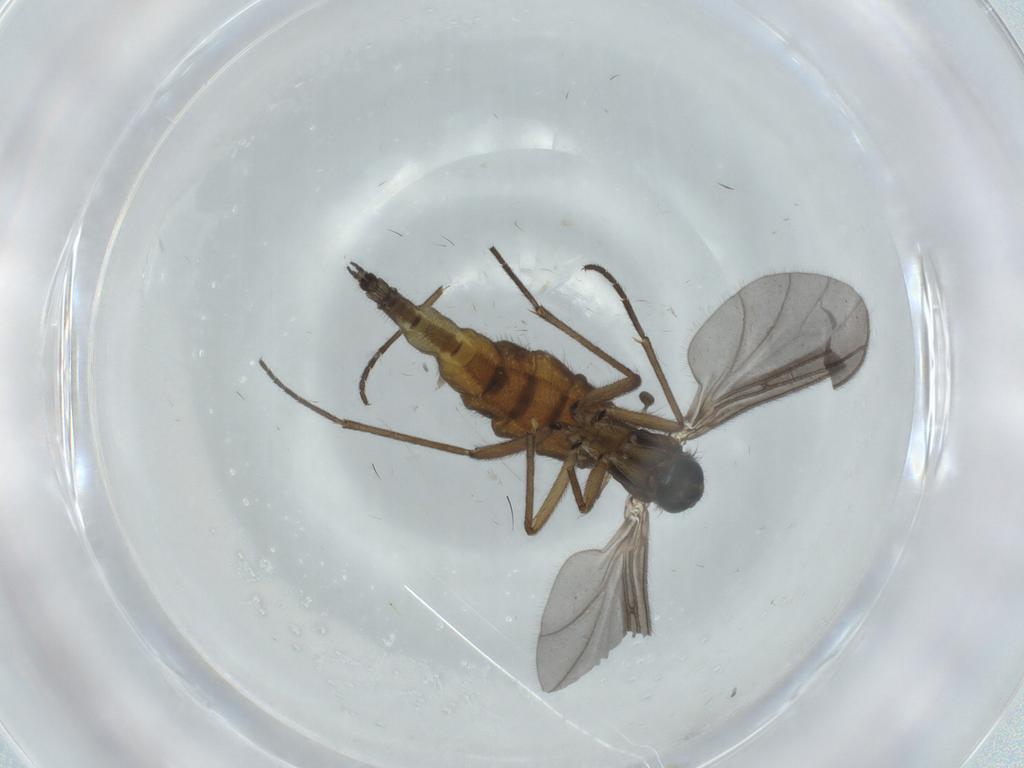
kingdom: Animalia
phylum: Arthropoda
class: Insecta
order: Diptera
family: Sciaridae
